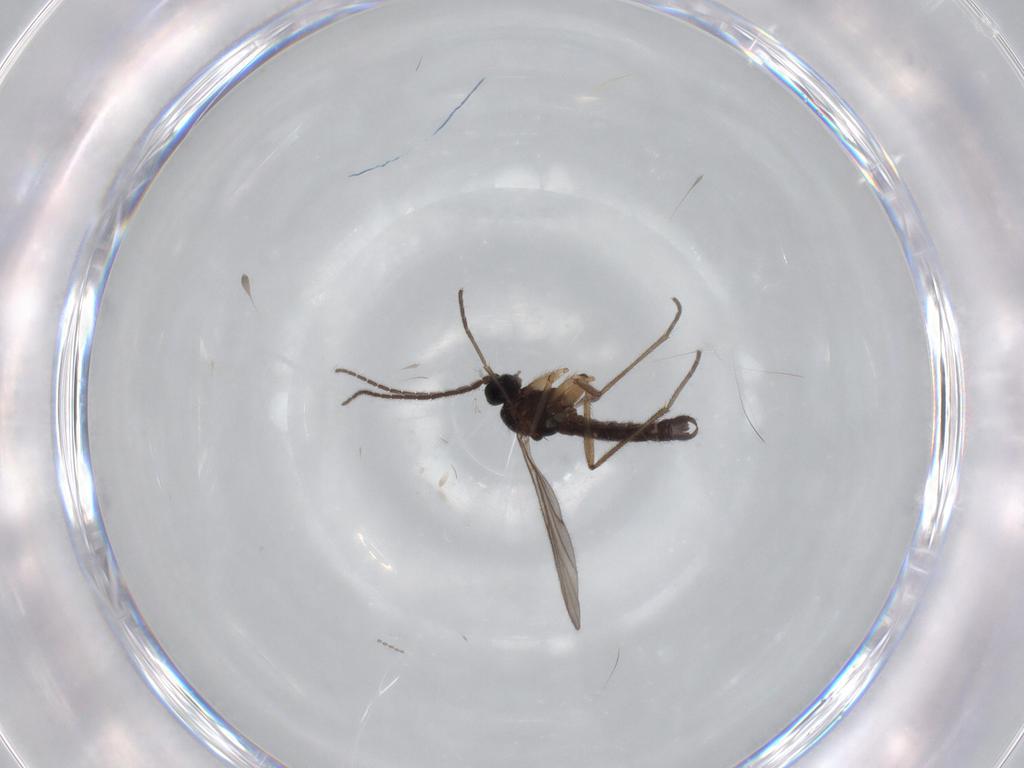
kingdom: Animalia
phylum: Arthropoda
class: Insecta
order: Diptera
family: Sciaridae
